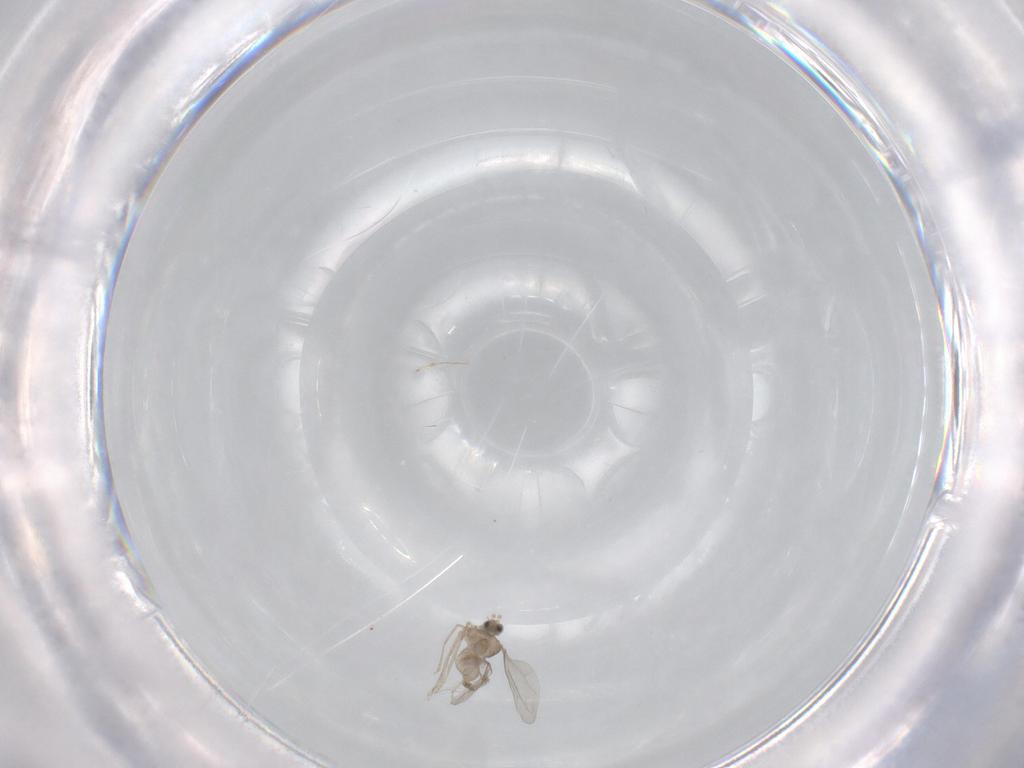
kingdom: Animalia
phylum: Arthropoda
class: Insecta
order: Diptera
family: Cecidomyiidae
